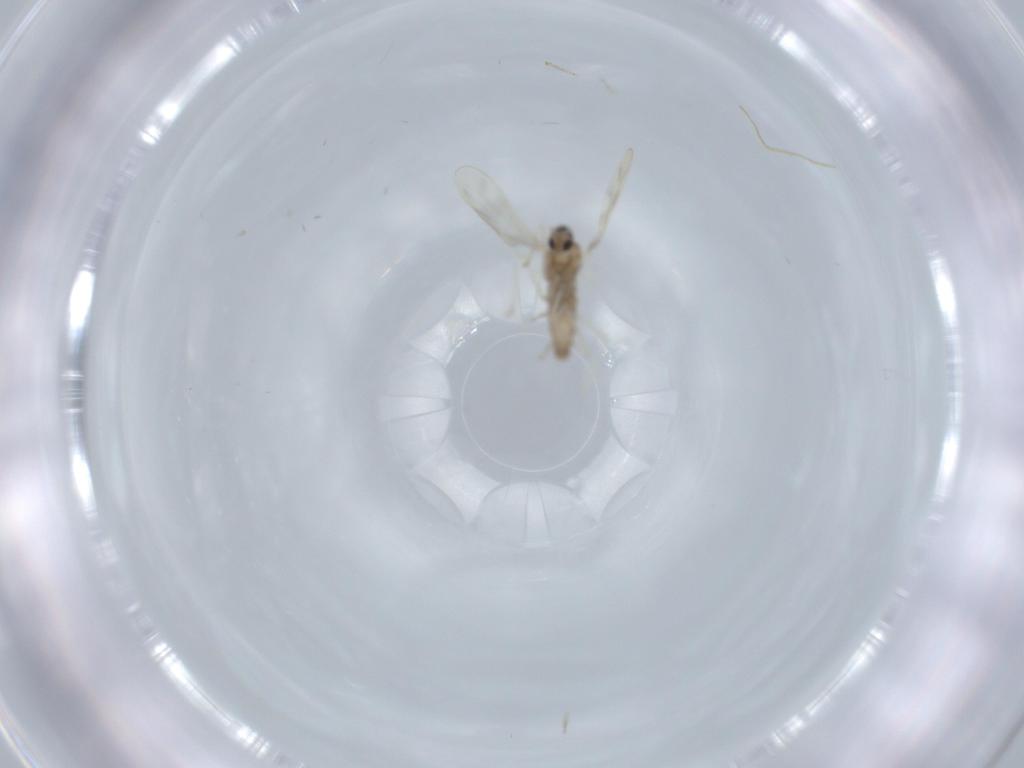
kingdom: Animalia
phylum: Arthropoda
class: Insecta
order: Diptera
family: Cecidomyiidae
